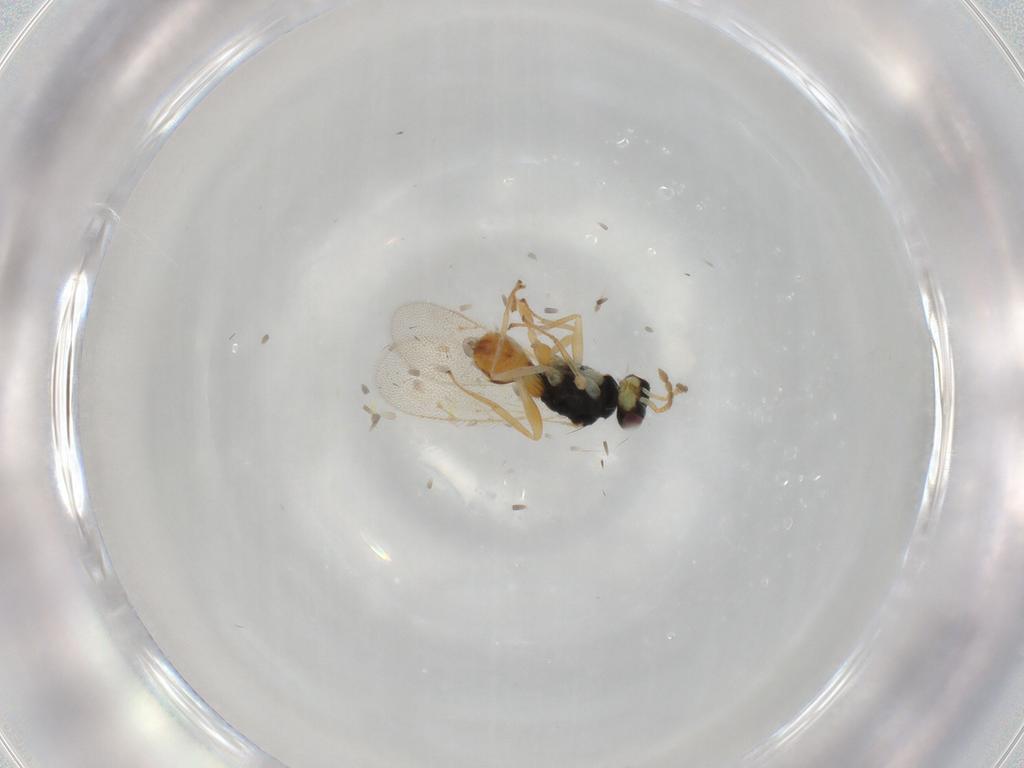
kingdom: Animalia
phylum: Arthropoda
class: Insecta
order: Hymenoptera
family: Eulophidae
